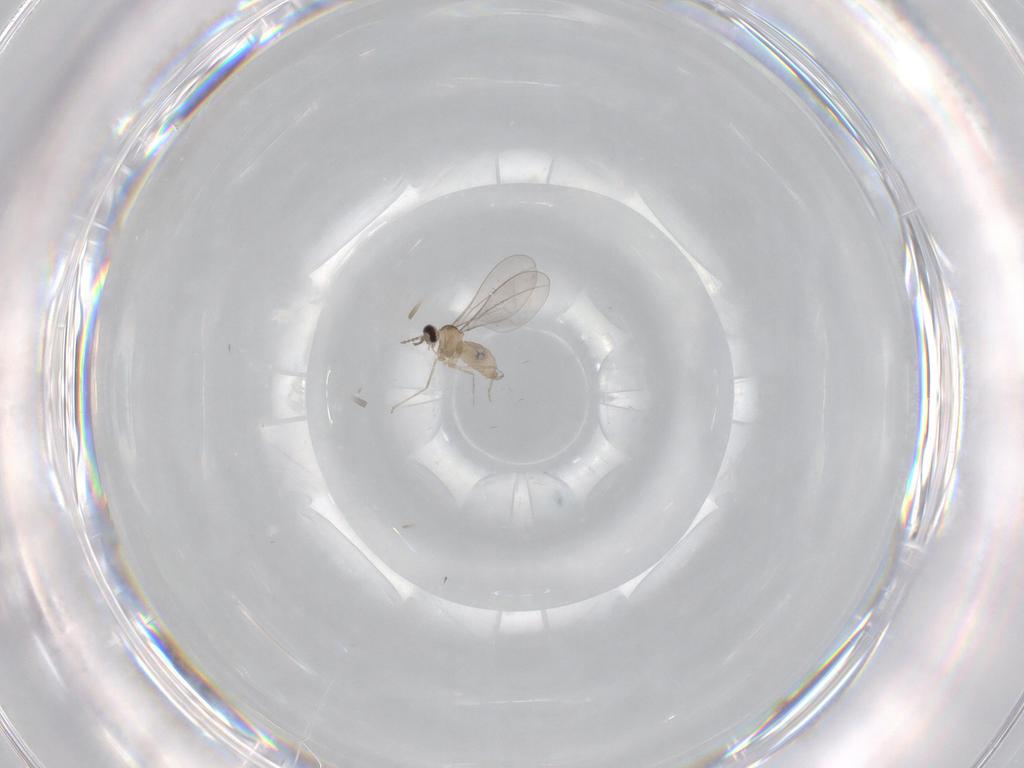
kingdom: Animalia
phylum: Arthropoda
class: Insecta
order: Diptera
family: Cecidomyiidae
